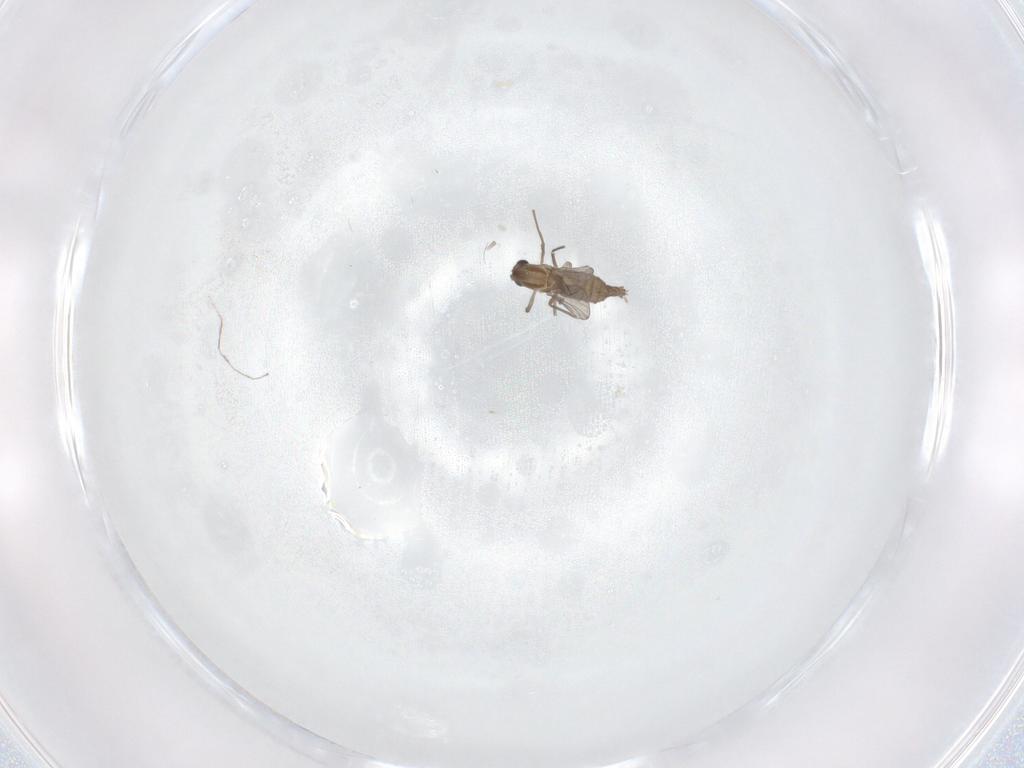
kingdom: Animalia
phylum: Arthropoda
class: Insecta
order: Diptera
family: Chironomidae
